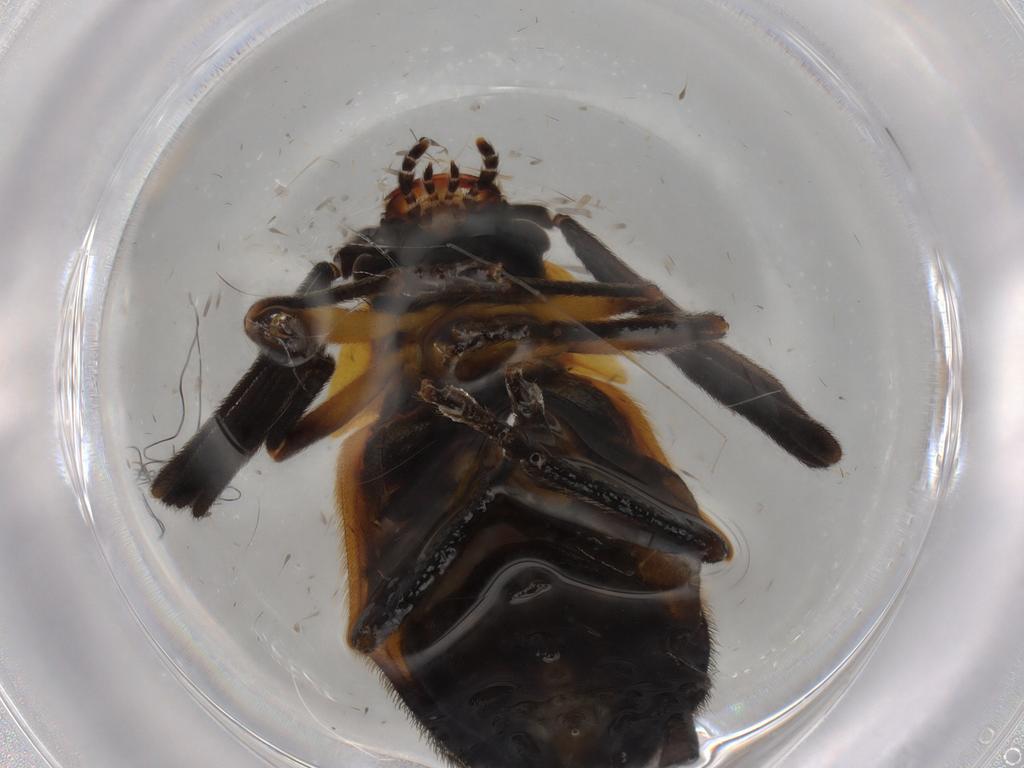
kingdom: Animalia
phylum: Arthropoda
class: Insecta
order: Coleoptera
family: Lampyridae
